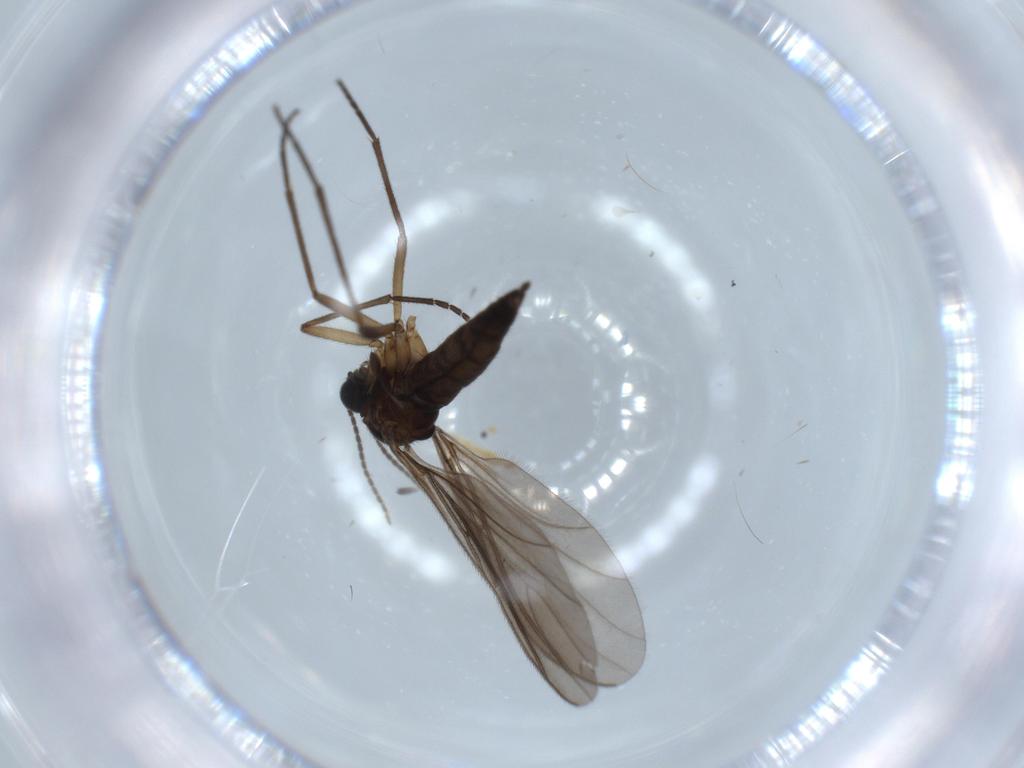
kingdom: Animalia
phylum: Arthropoda
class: Insecta
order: Diptera
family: Sciaridae
